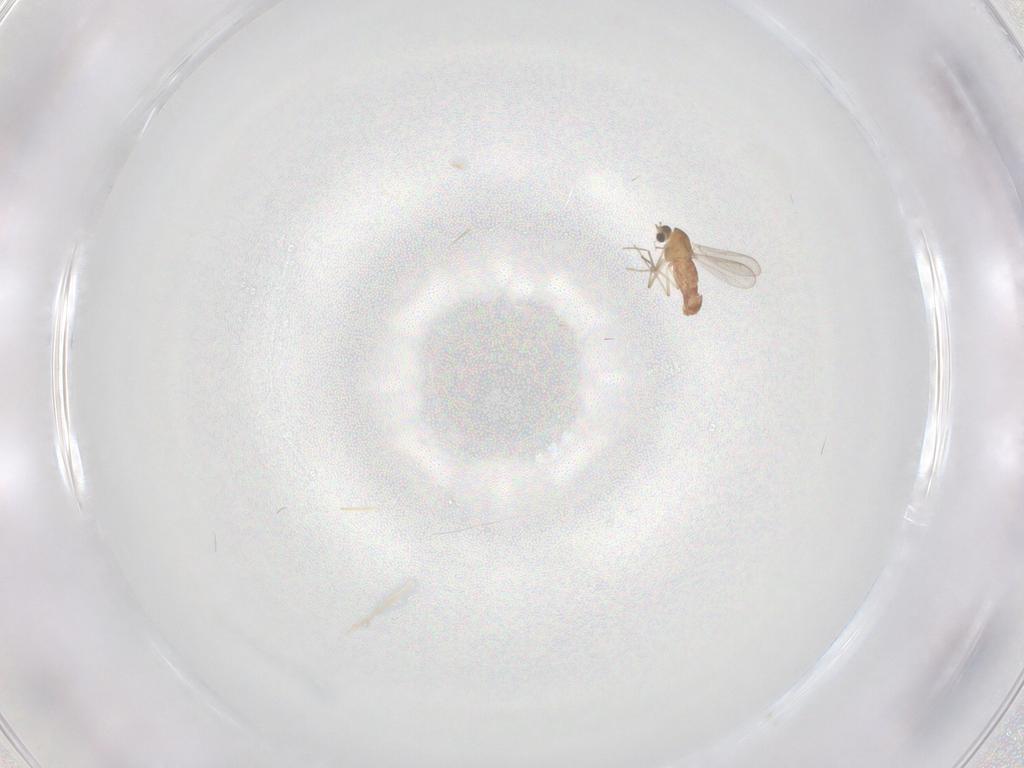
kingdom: Animalia
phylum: Arthropoda
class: Insecta
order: Diptera
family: Chironomidae
